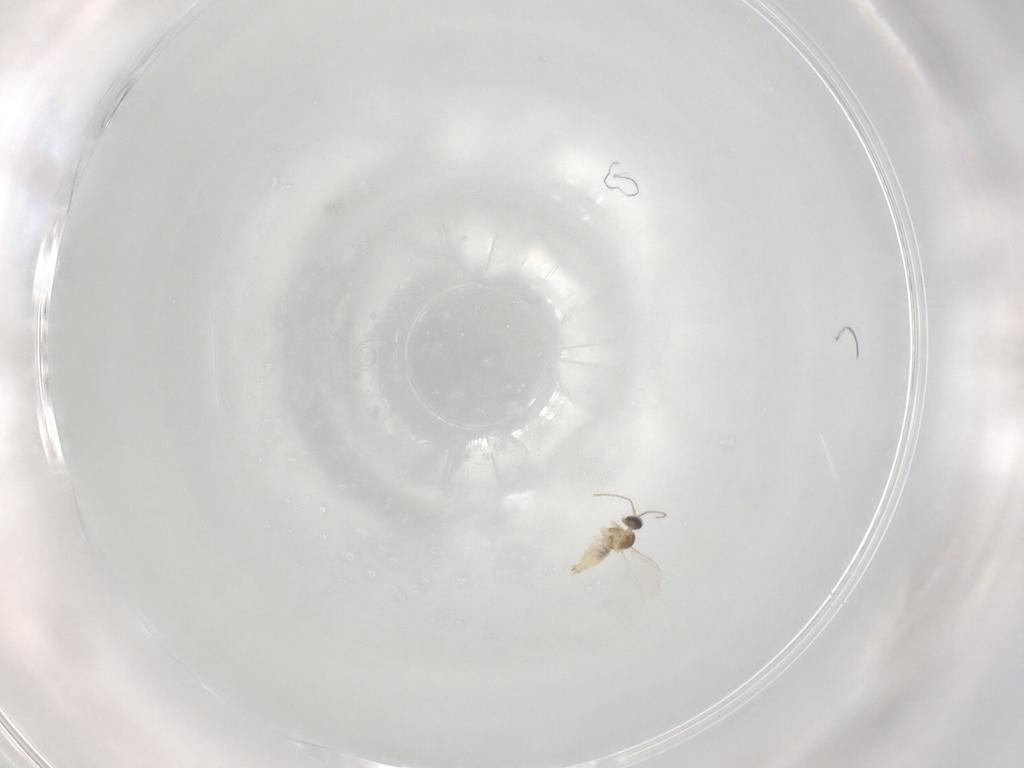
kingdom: Animalia
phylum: Arthropoda
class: Insecta
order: Diptera
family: Cecidomyiidae
